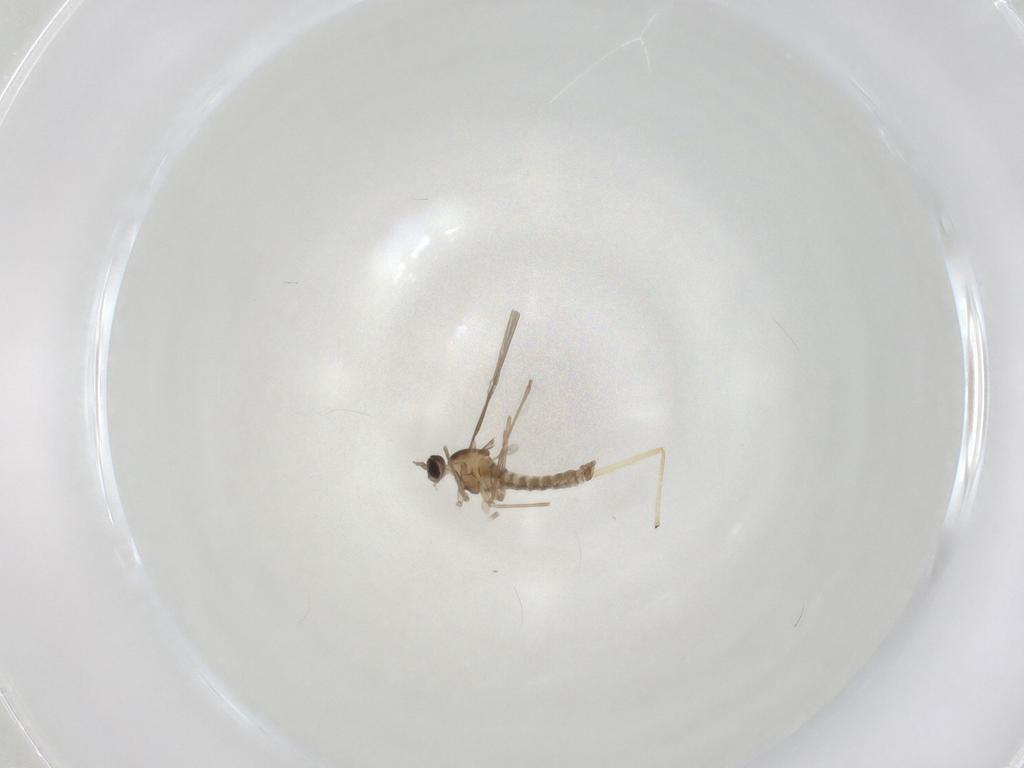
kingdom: Animalia
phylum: Arthropoda
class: Insecta
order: Diptera
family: Cecidomyiidae
